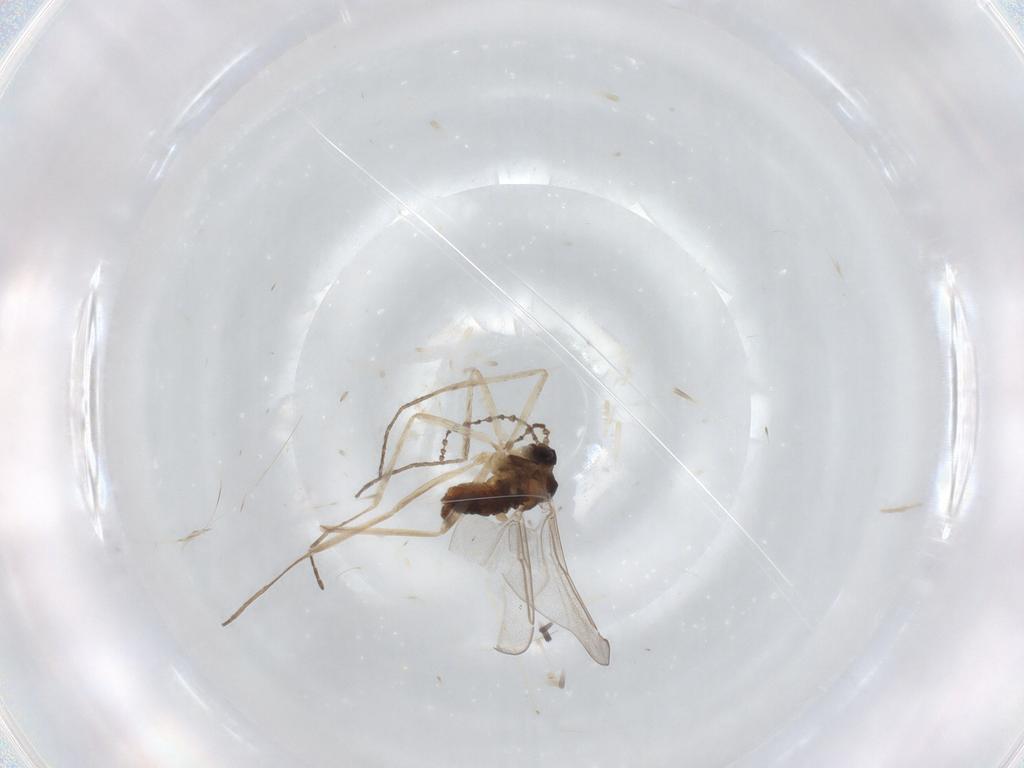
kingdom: Animalia
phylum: Arthropoda
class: Insecta
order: Diptera
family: Cecidomyiidae
